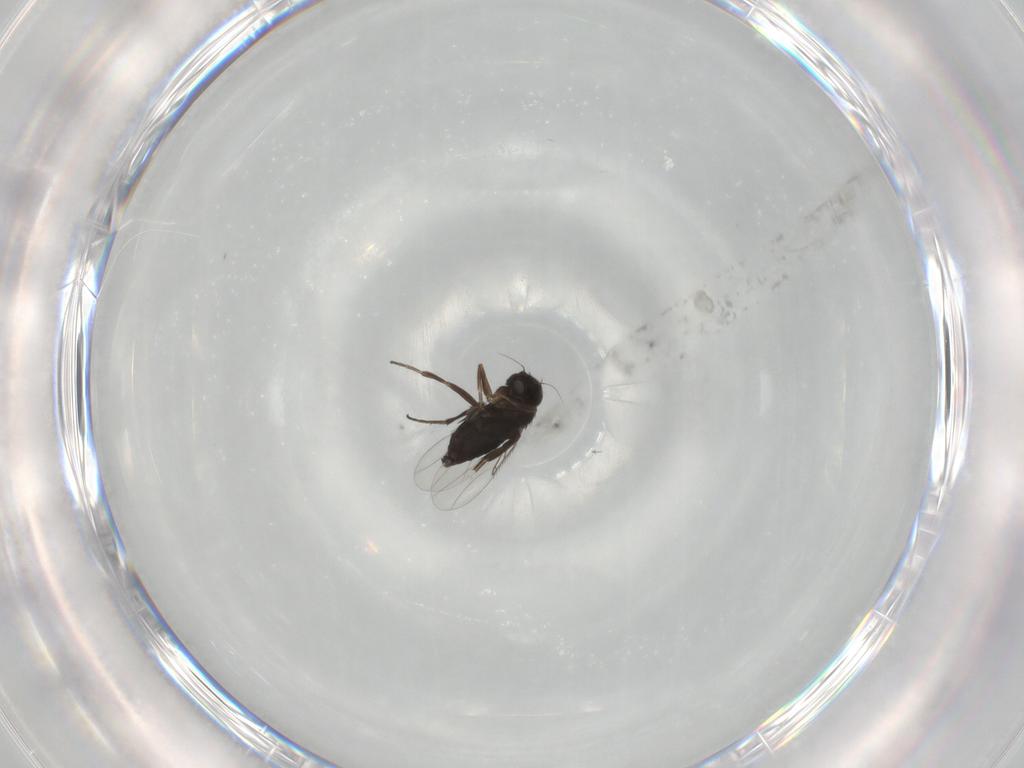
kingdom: Animalia
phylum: Arthropoda
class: Insecta
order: Diptera
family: Phoridae
